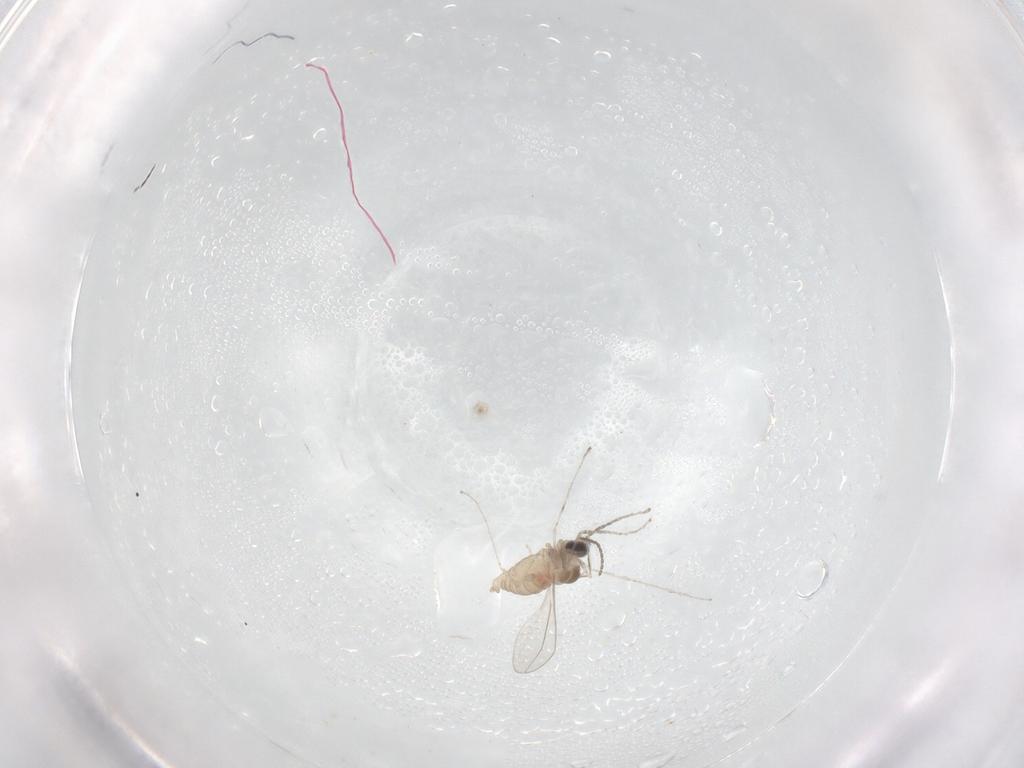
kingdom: Animalia
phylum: Arthropoda
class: Insecta
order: Diptera
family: Cecidomyiidae
